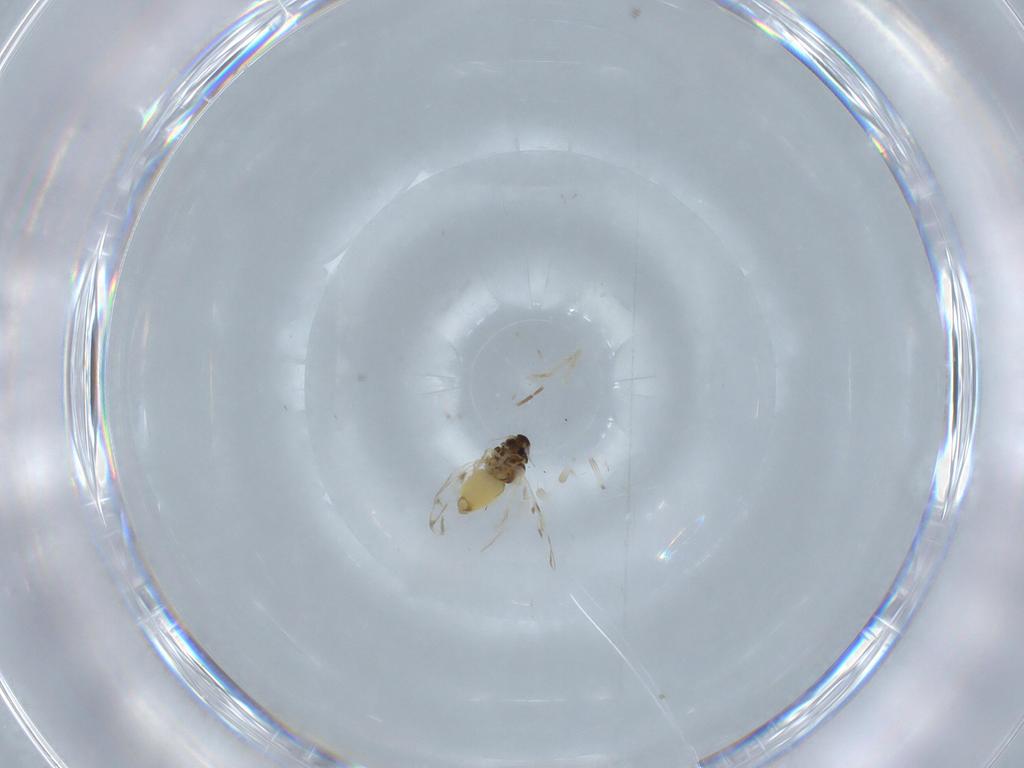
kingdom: Animalia
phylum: Arthropoda
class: Insecta
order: Hemiptera
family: Aleyrodidae
